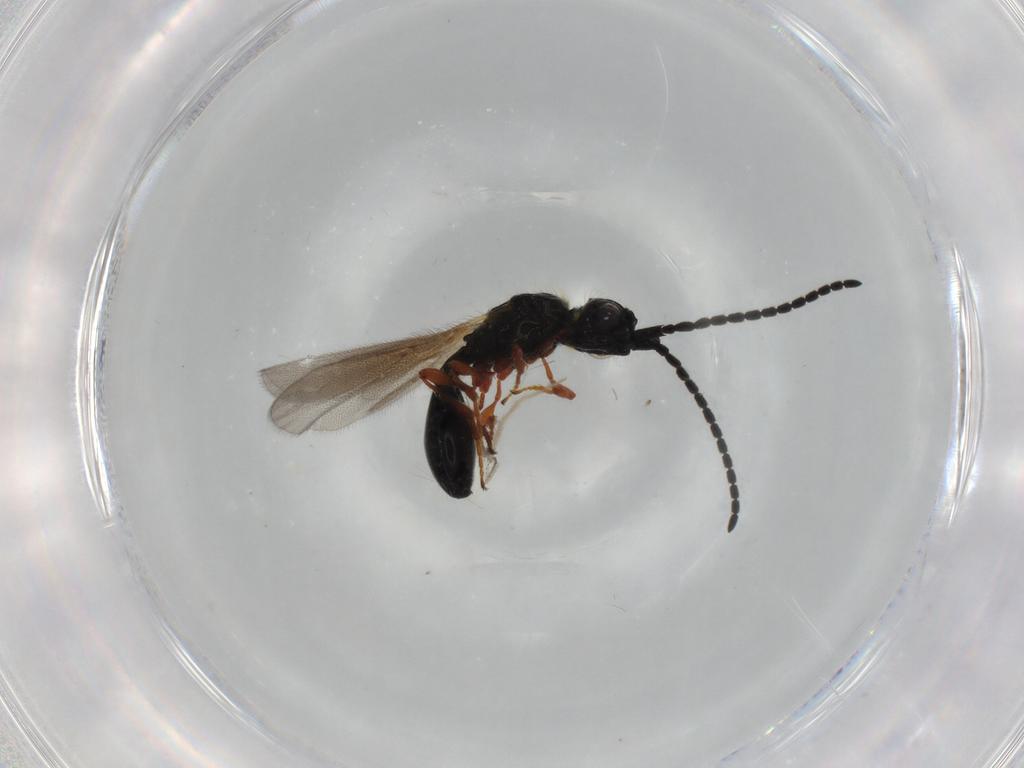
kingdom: Animalia
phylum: Arthropoda
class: Insecta
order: Hymenoptera
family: Diapriidae
